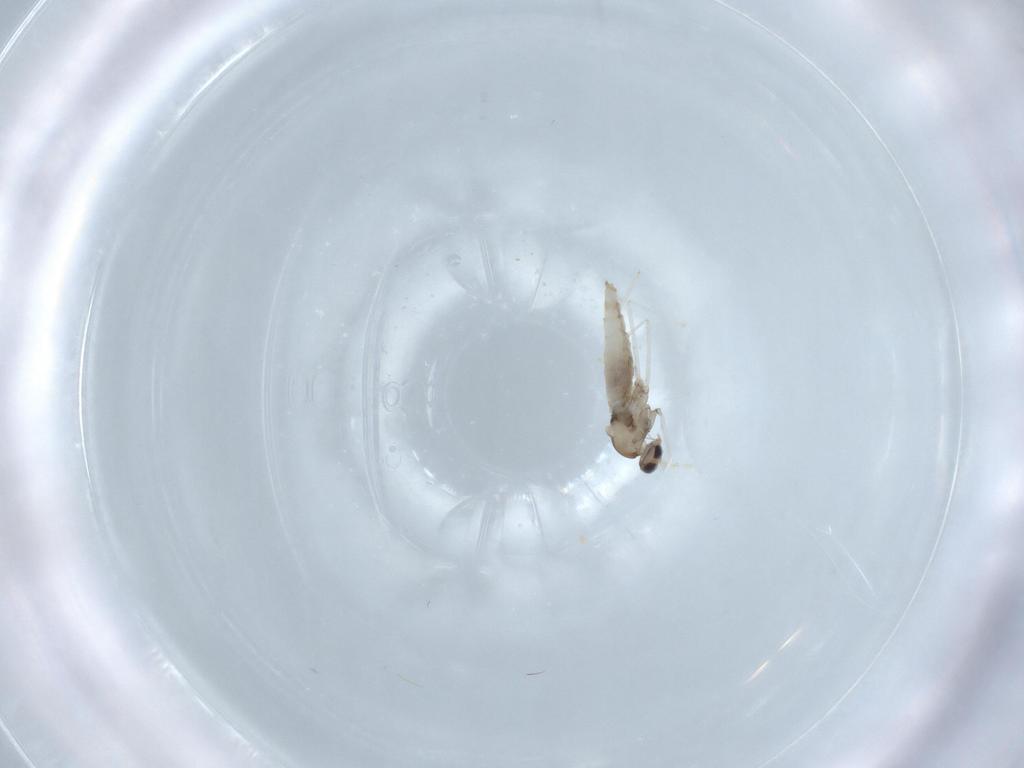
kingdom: Animalia
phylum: Arthropoda
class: Insecta
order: Diptera
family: Cecidomyiidae
